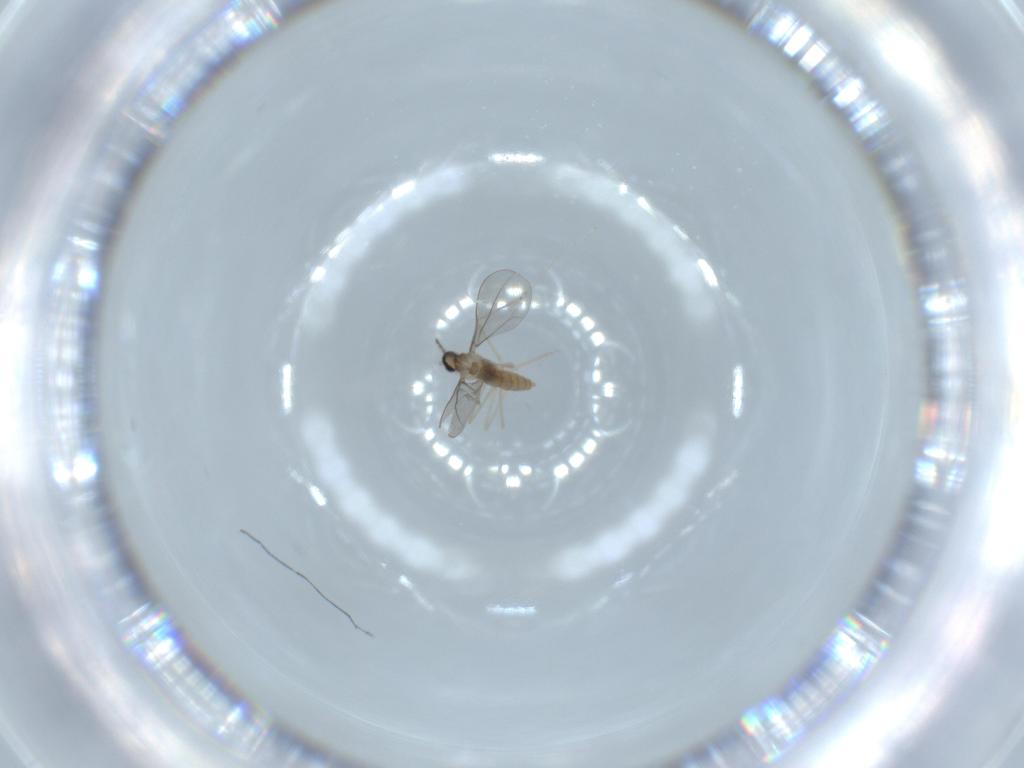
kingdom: Animalia
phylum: Arthropoda
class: Insecta
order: Diptera
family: Cecidomyiidae
